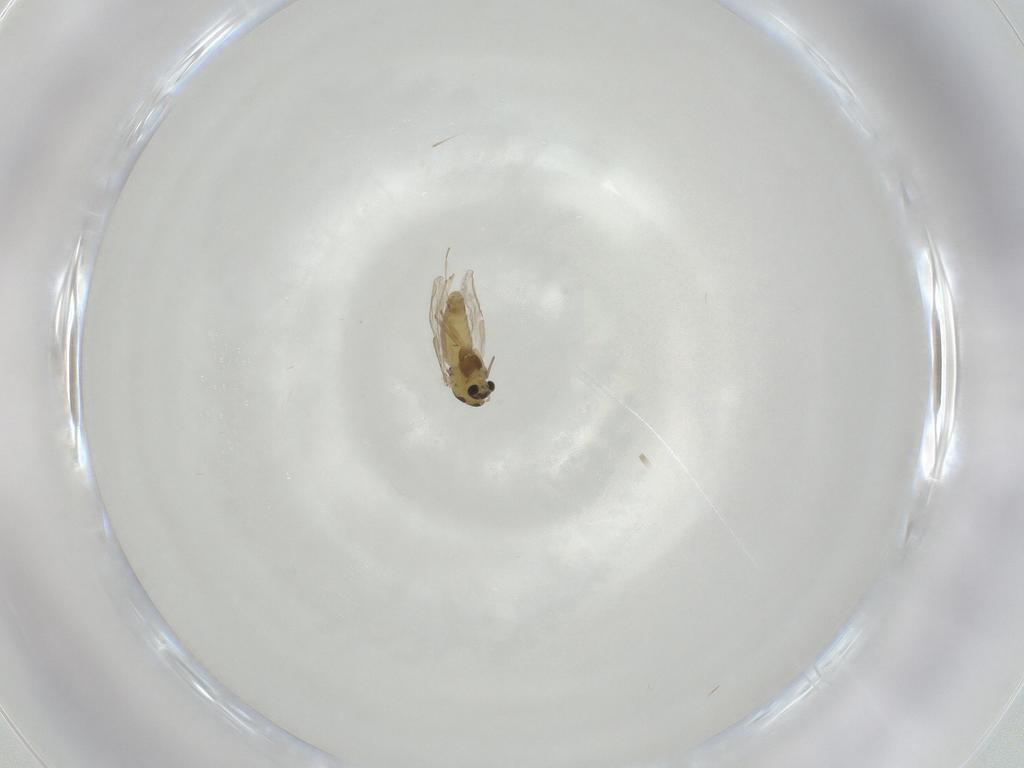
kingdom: Animalia
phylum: Arthropoda
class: Insecta
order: Diptera
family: Chironomidae
